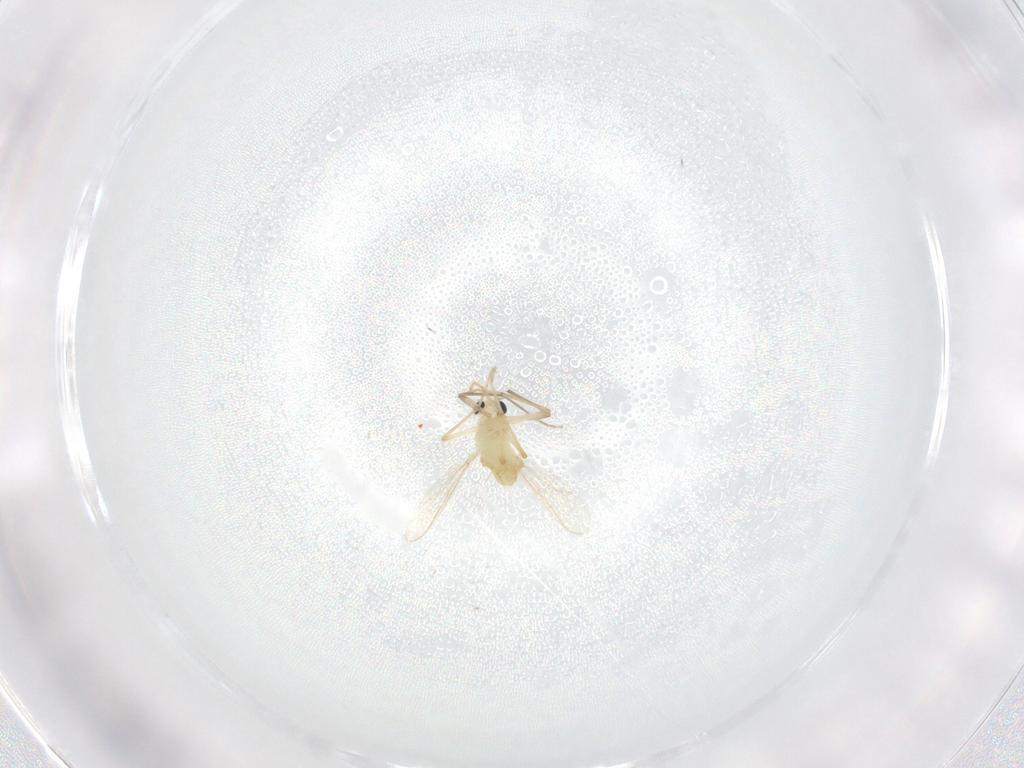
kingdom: Animalia
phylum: Arthropoda
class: Insecta
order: Diptera
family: Chironomidae
